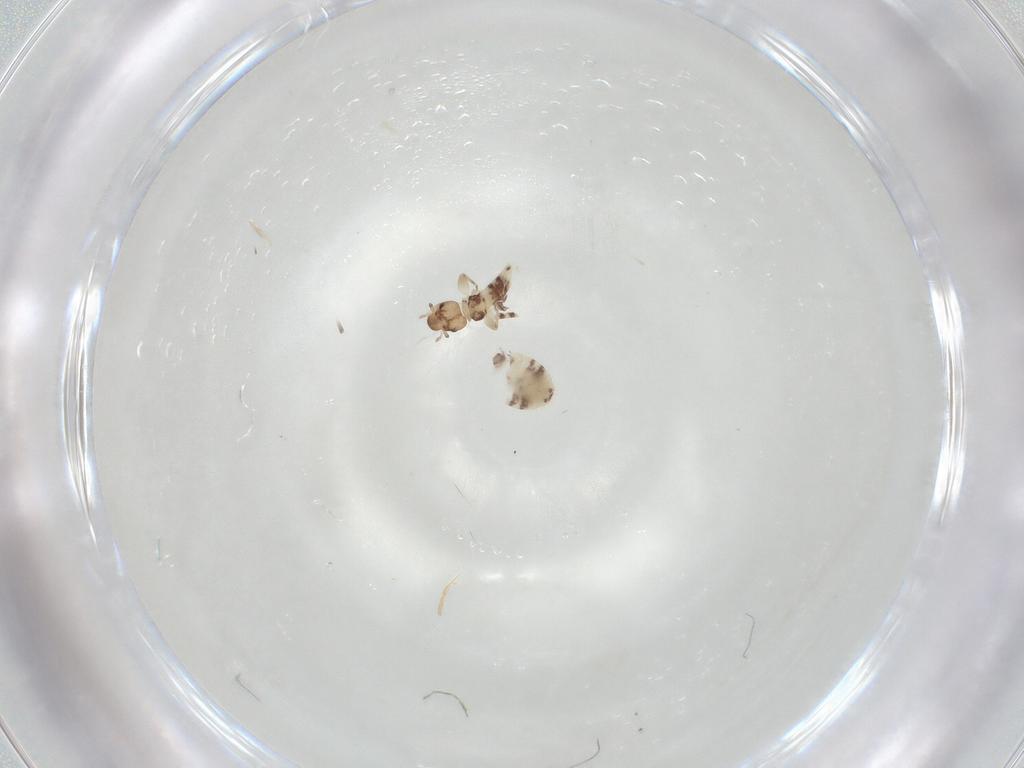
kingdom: Animalia
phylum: Arthropoda
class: Insecta
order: Psocodea
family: Liposcelididae
